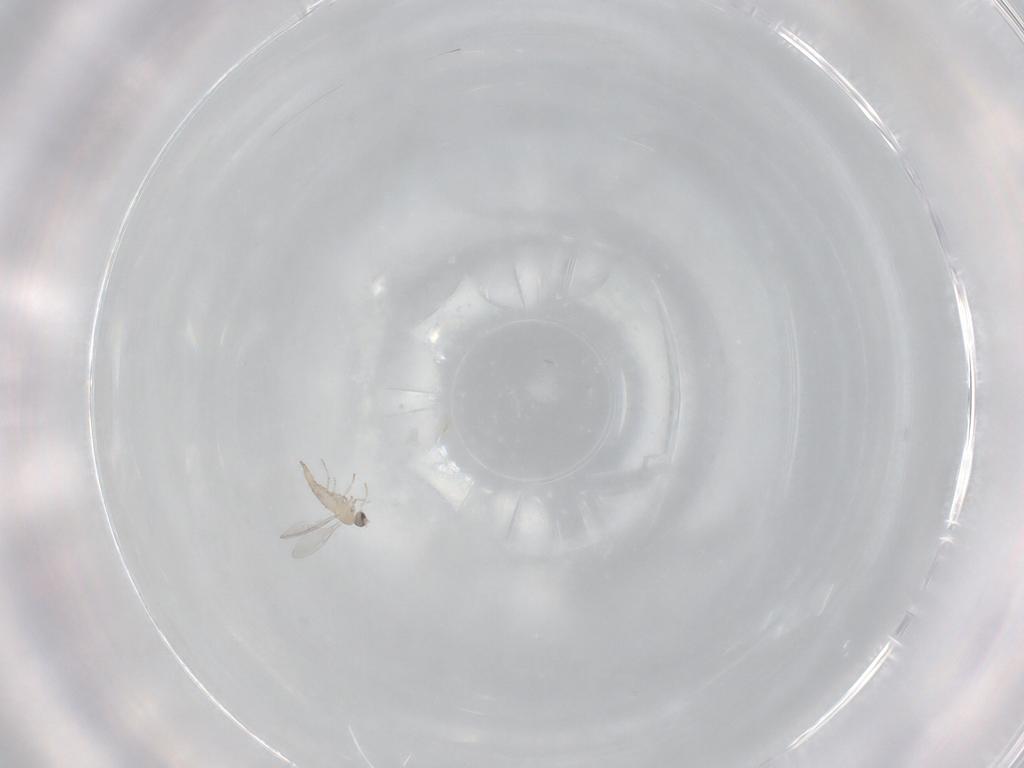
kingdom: Animalia
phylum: Arthropoda
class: Insecta
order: Diptera
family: Cecidomyiidae
